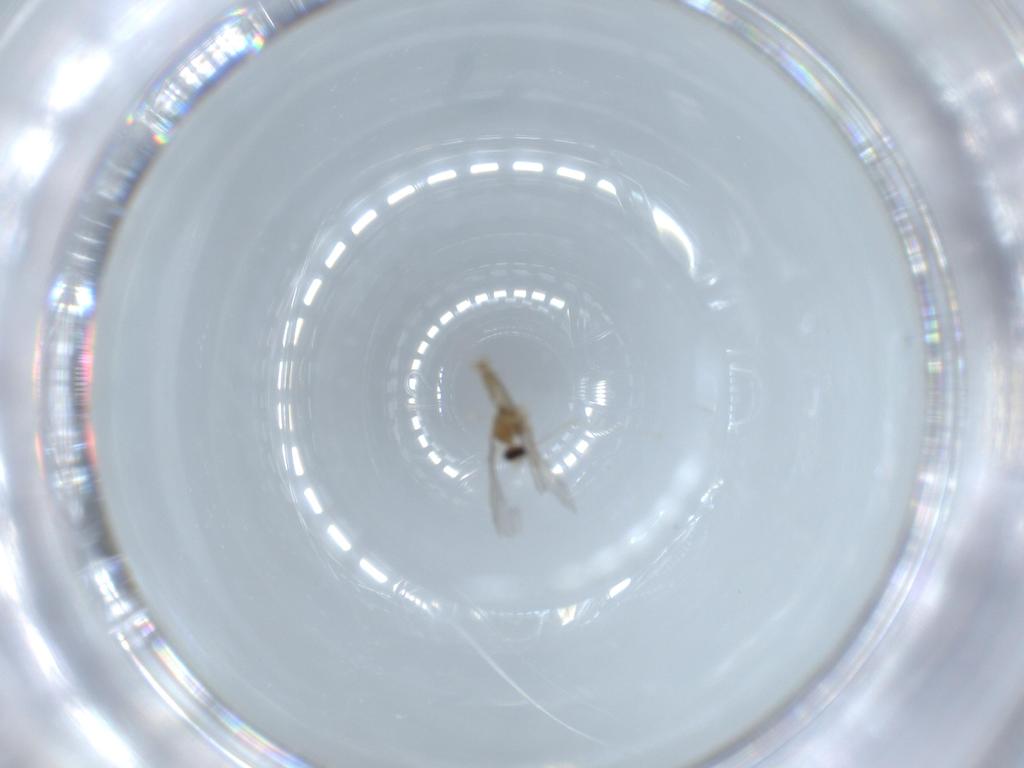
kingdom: Animalia
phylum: Arthropoda
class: Insecta
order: Diptera
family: Cecidomyiidae
